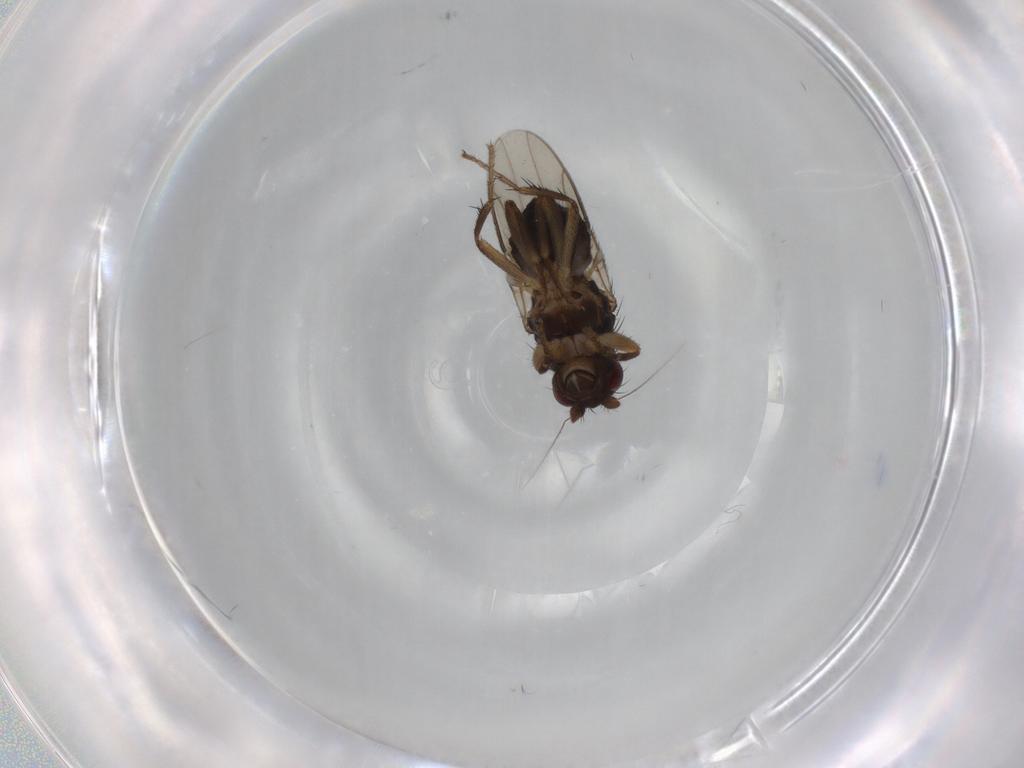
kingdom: Animalia
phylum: Arthropoda
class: Insecta
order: Diptera
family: Sphaeroceridae
